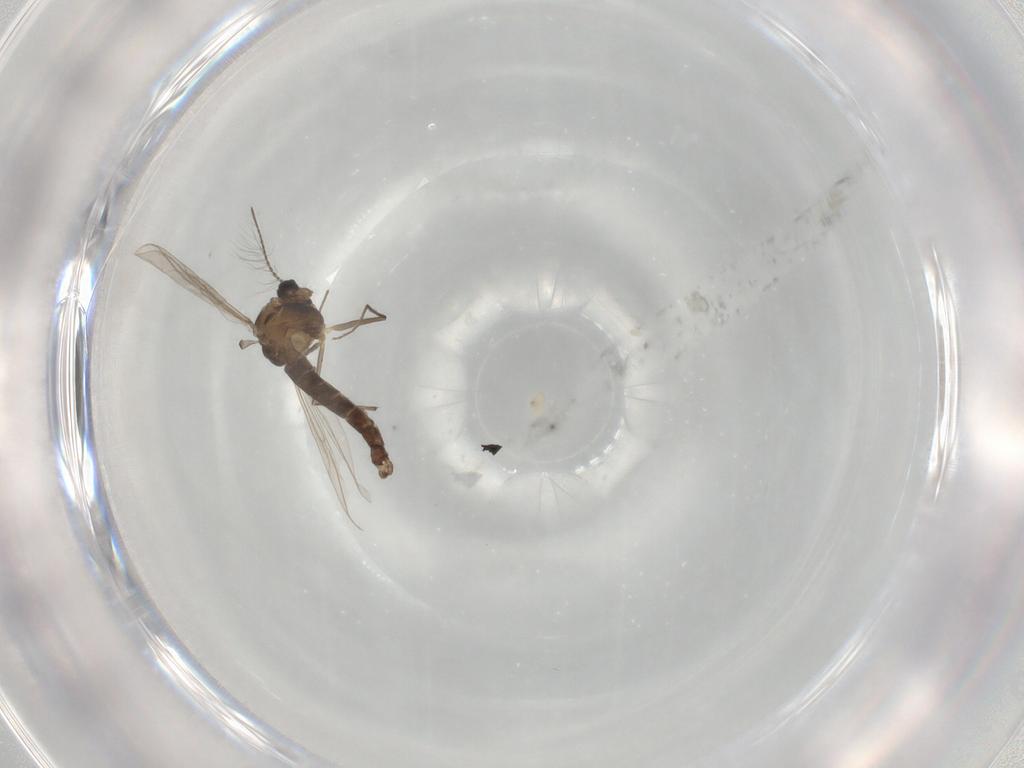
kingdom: Animalia
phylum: Arthropoda
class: Insecta
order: Diptera
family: Chironomidae
